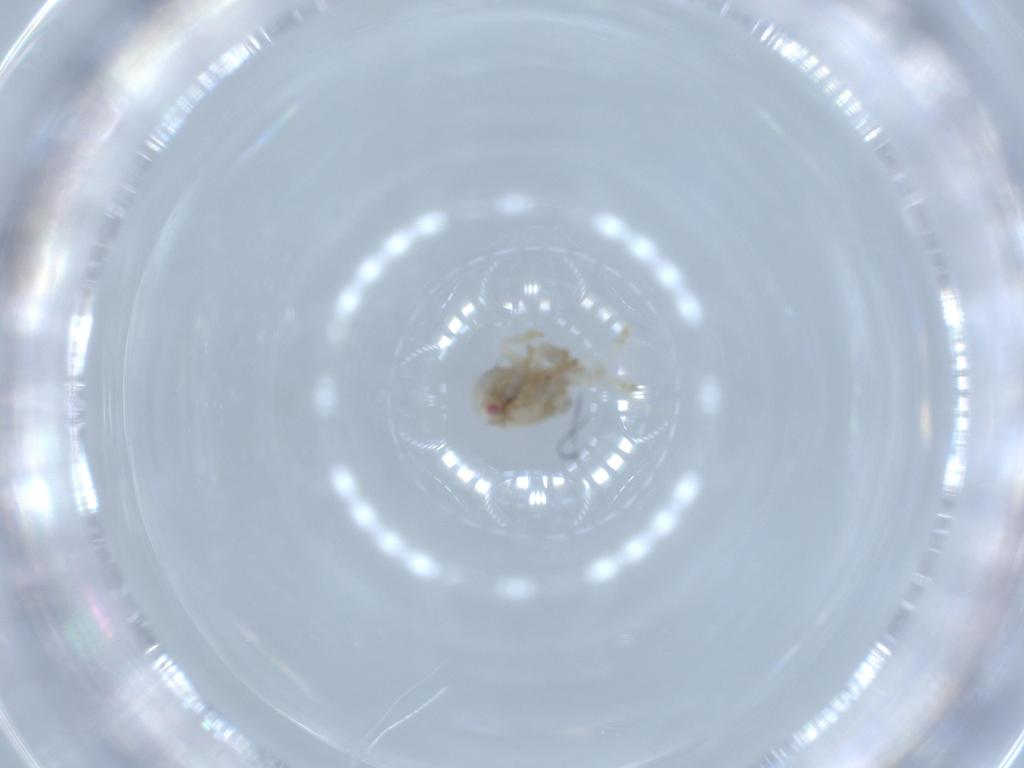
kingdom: Animalia
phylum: Arthropoda
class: Insecta
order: Hemiptera
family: Acanaloniidae
